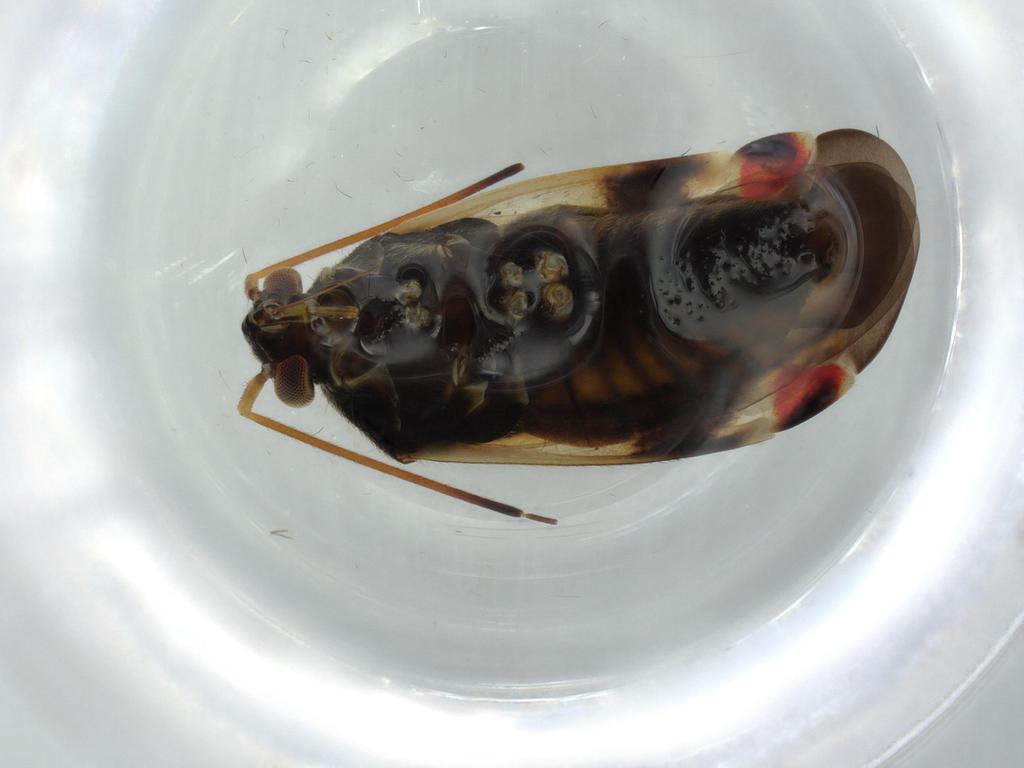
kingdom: Animalia
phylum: Arthropoda
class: Insecta
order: Hemiptera
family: Miridae
